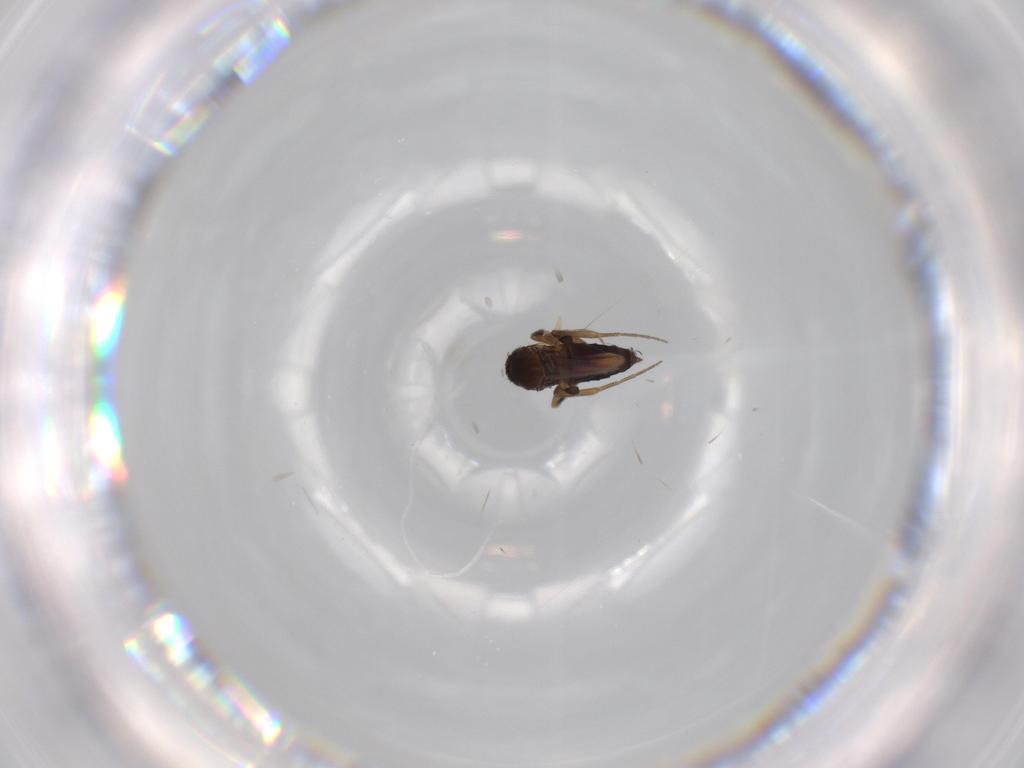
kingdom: Animalia
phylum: Arthropoda
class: Insecta
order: Diptera
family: Phoridae
